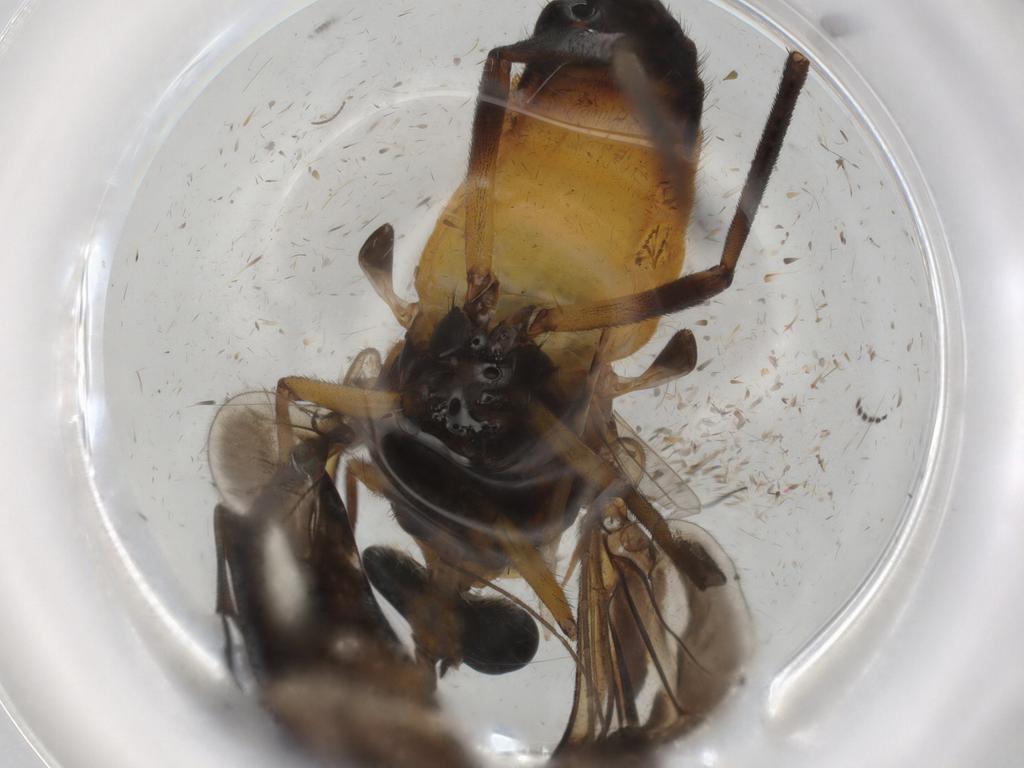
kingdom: Animalia
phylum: Arthropoda
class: Insecta
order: Diptera
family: Cecidomyiidae
